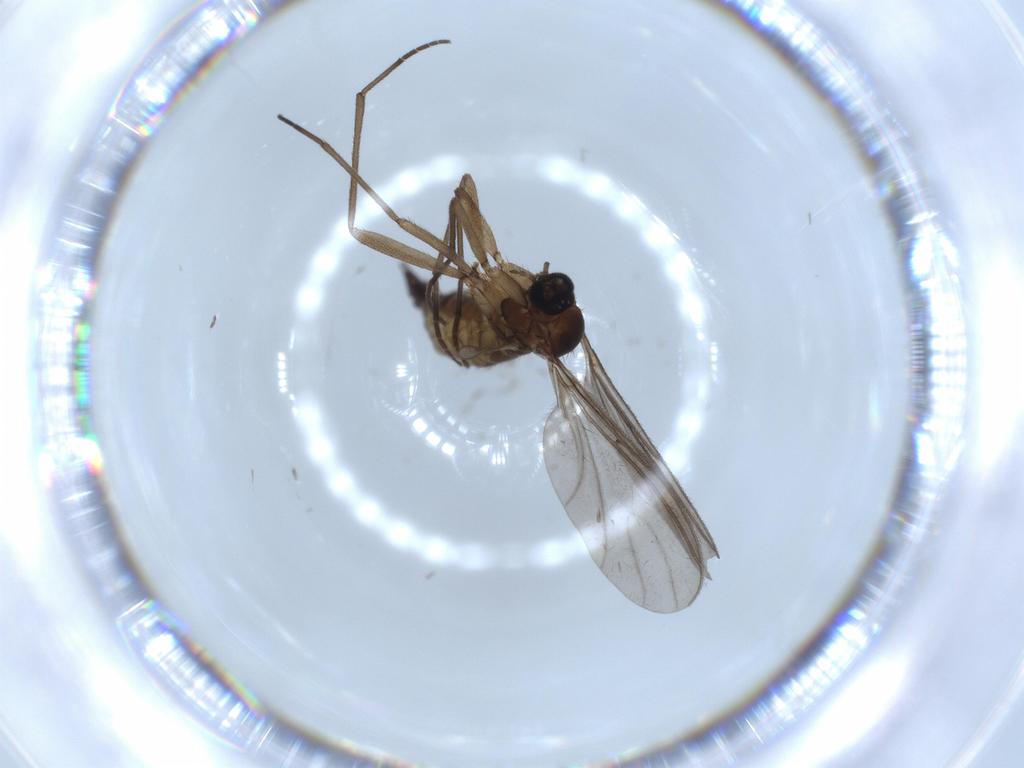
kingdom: Animalia
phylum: Arthropoda
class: Insecta
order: Diptera
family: Sciaridae
